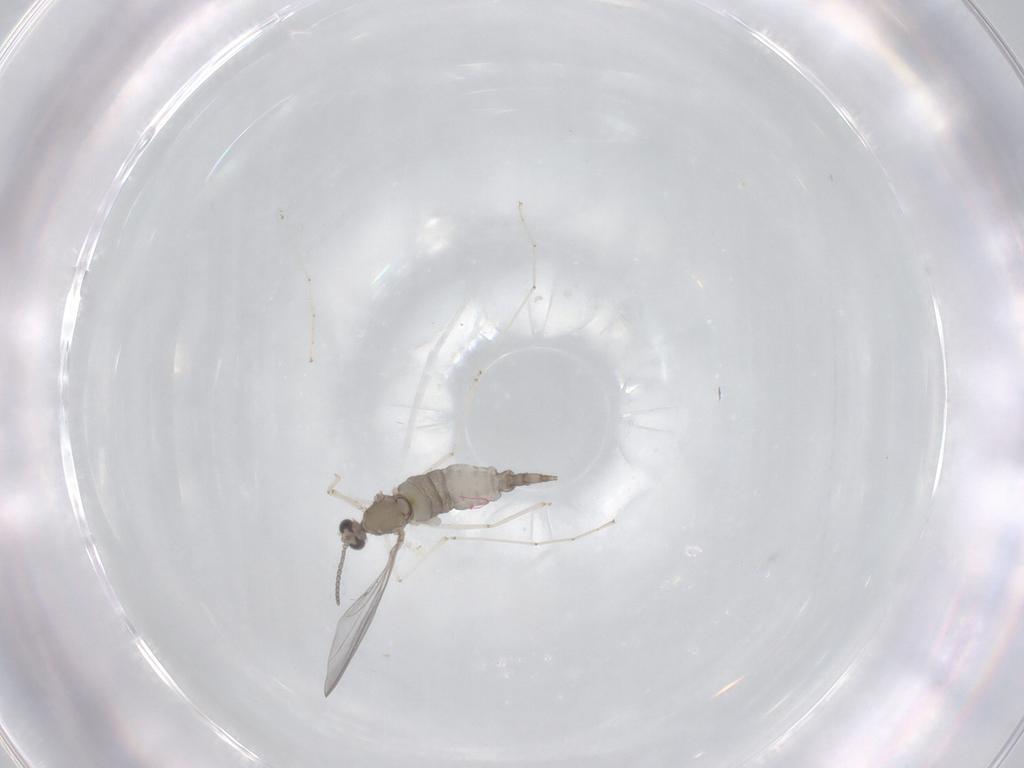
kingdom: Animalia
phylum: Arthropoda
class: Insecta
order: Diptera
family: Cecidomyiidae
